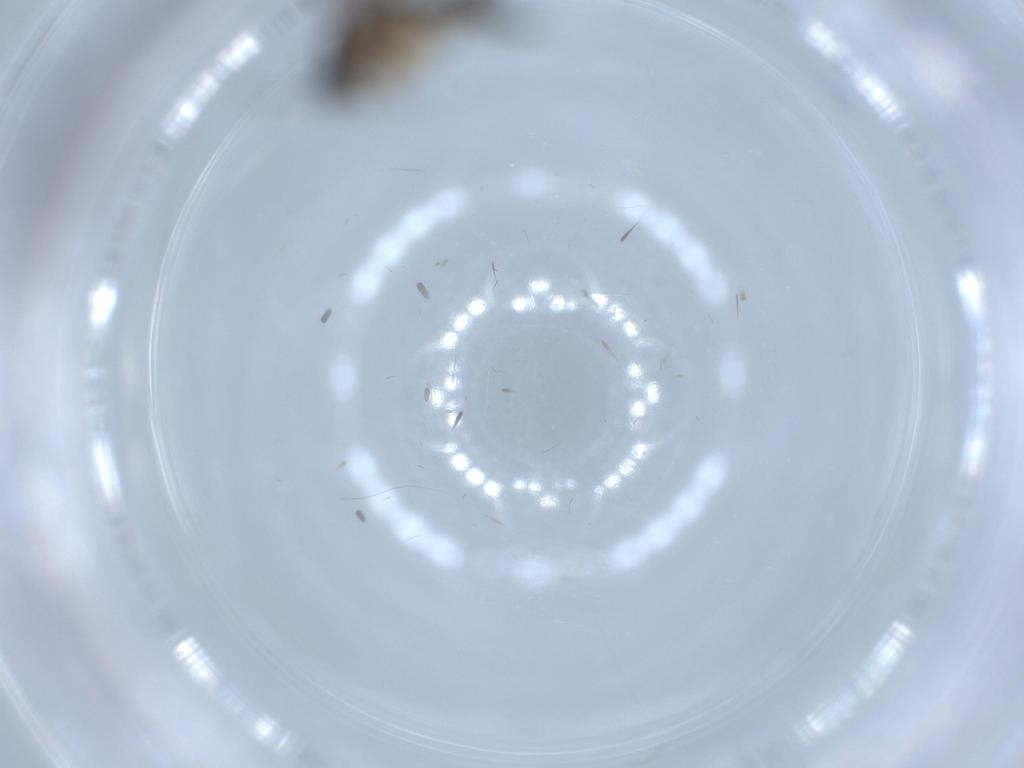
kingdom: Animalia
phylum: Arthropoda
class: Insecta
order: Diptera
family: Sciaridae
